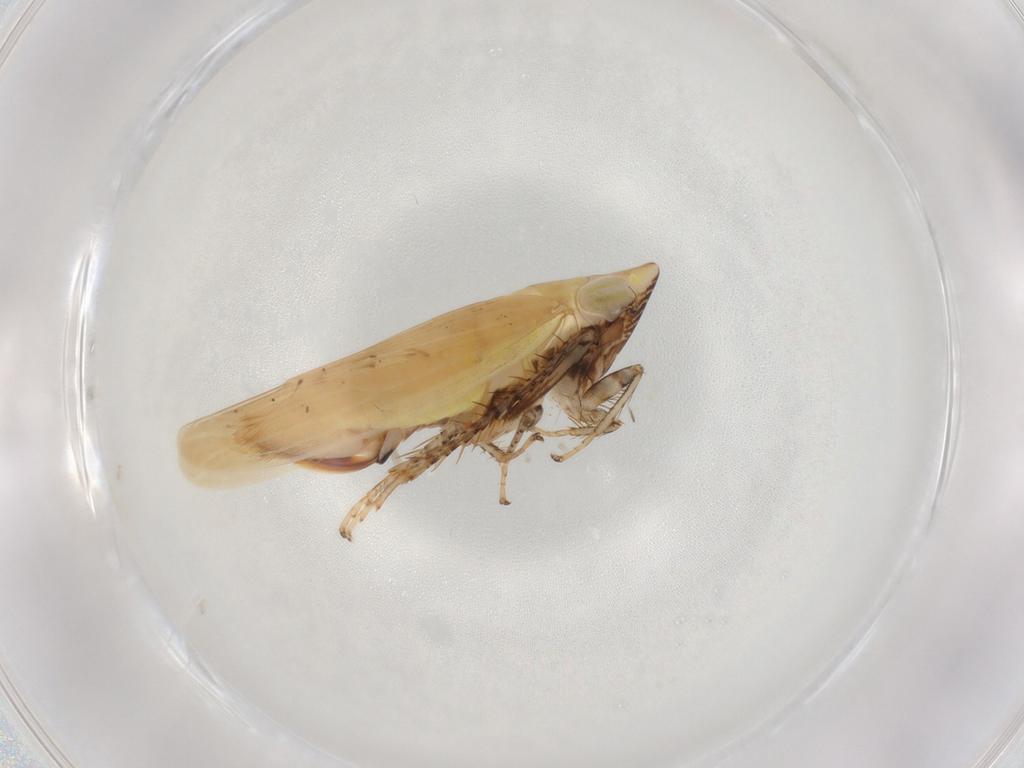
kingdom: Animalia
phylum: Arthropoda
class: Insecta
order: Hemiptera
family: Cicadellidae
